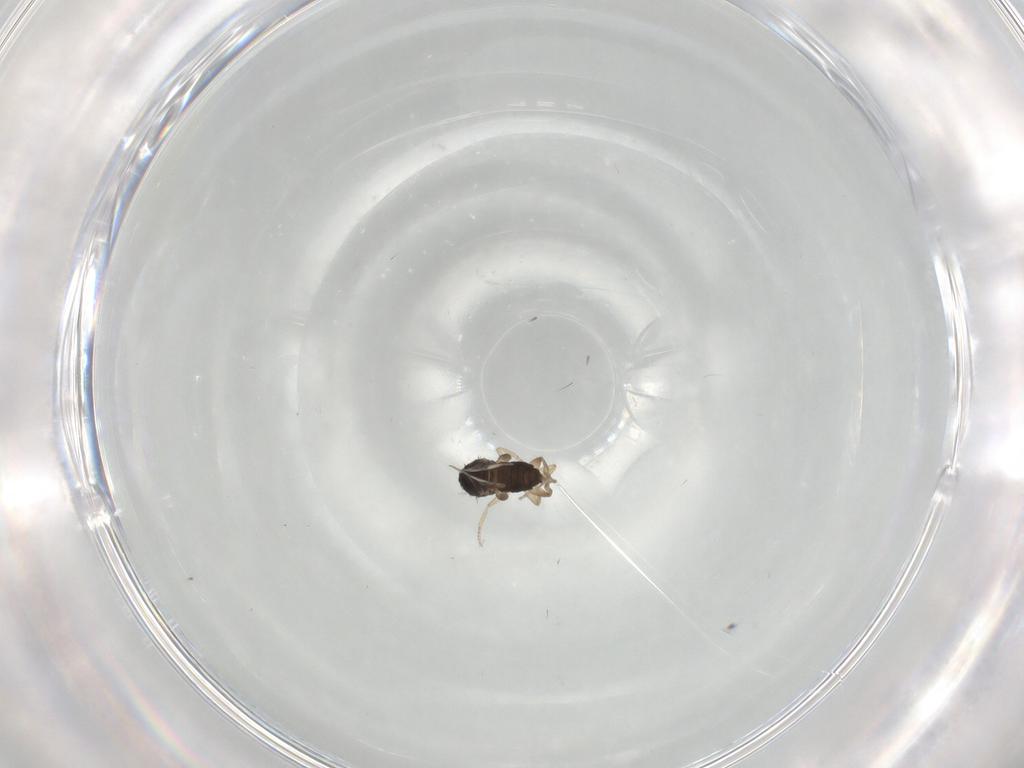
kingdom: Animalia
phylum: Arthropoda
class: Insecta
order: Diptera
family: Phoridae
